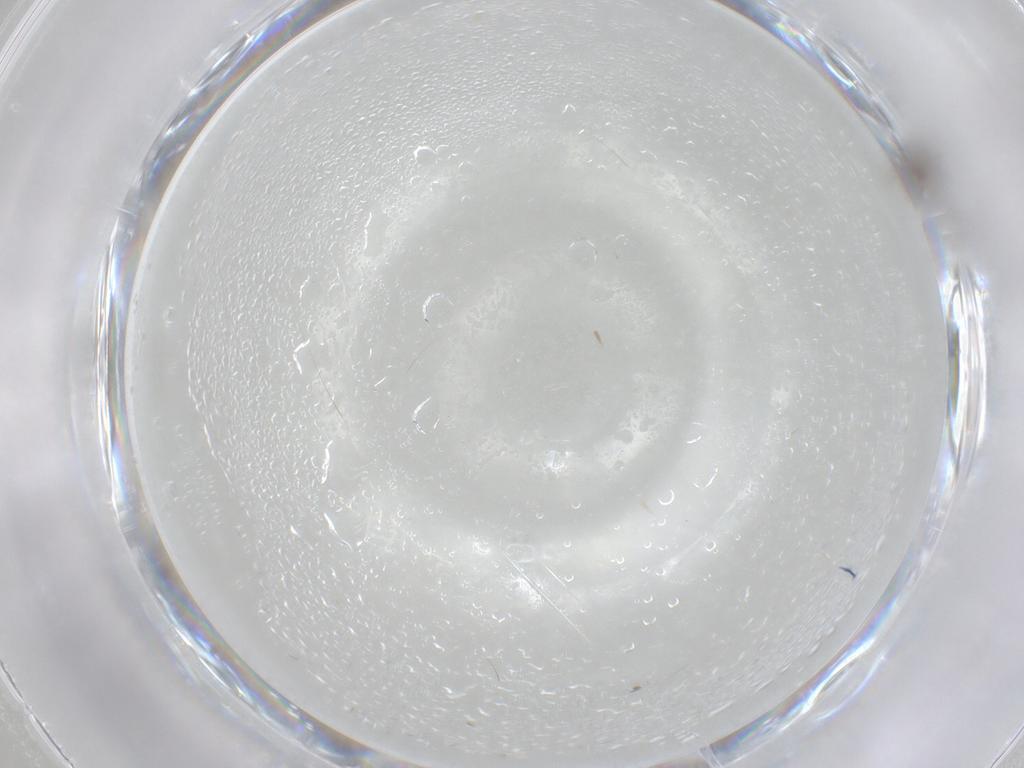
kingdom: Animalia
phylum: Arthropoda
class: Insecta
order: Diptera
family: Cecidomyiidae
